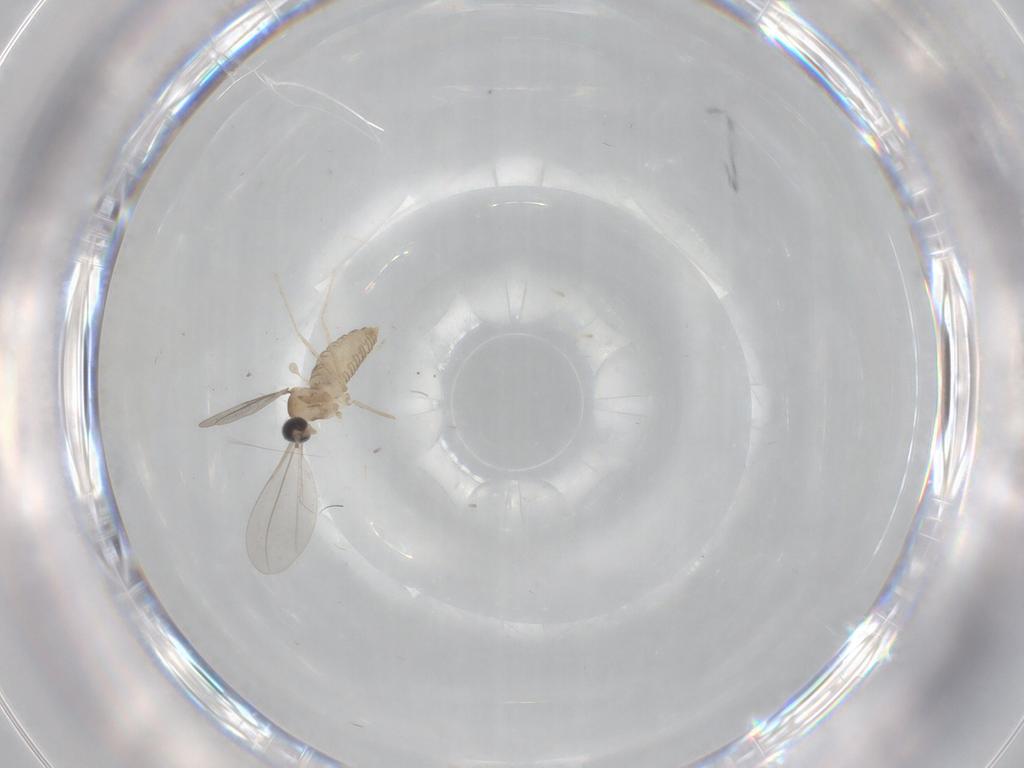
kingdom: Animalia
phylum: Arthropoda
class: Insecta
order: Diptera
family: Cecidomyiidae
